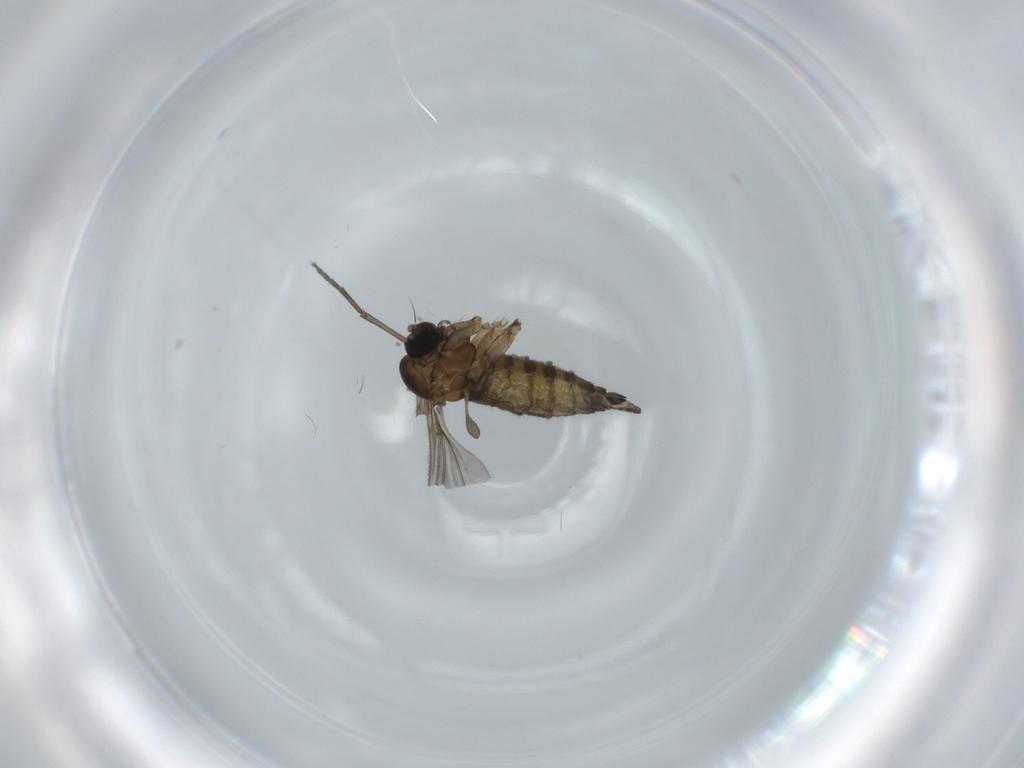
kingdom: Animalia
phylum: Arthropoda
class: Insecta
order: Diptera
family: Sciaridae
